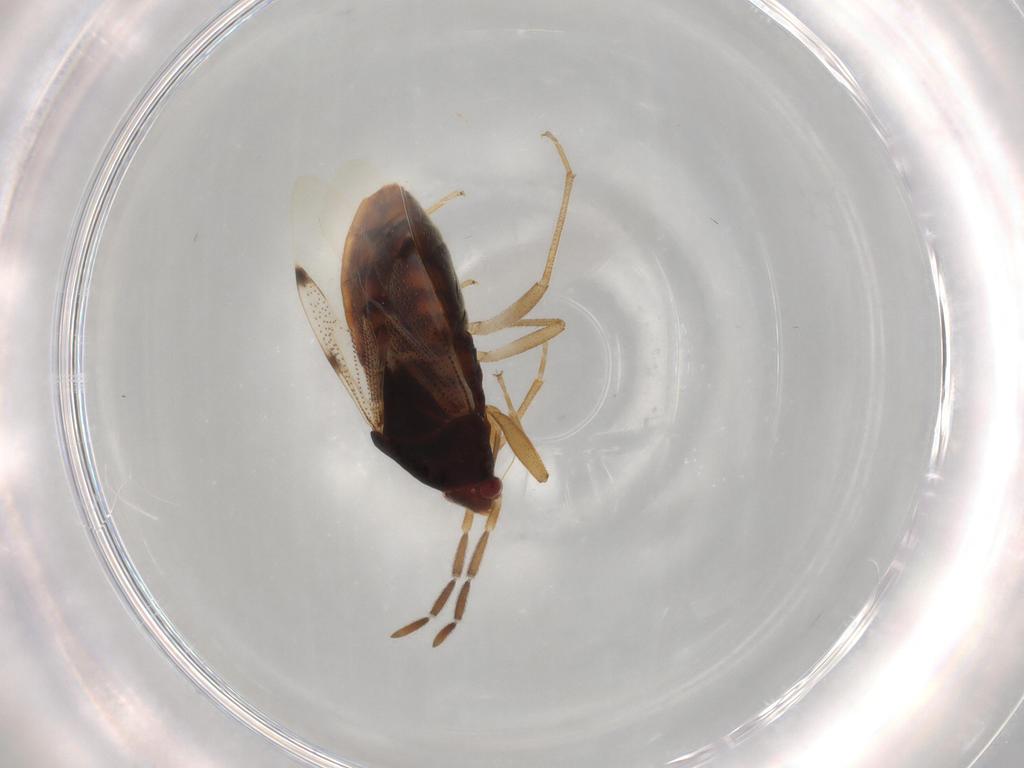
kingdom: Animalia
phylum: Arthropoda
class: Insecta
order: Hemiptera
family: Rhyparochromidae
